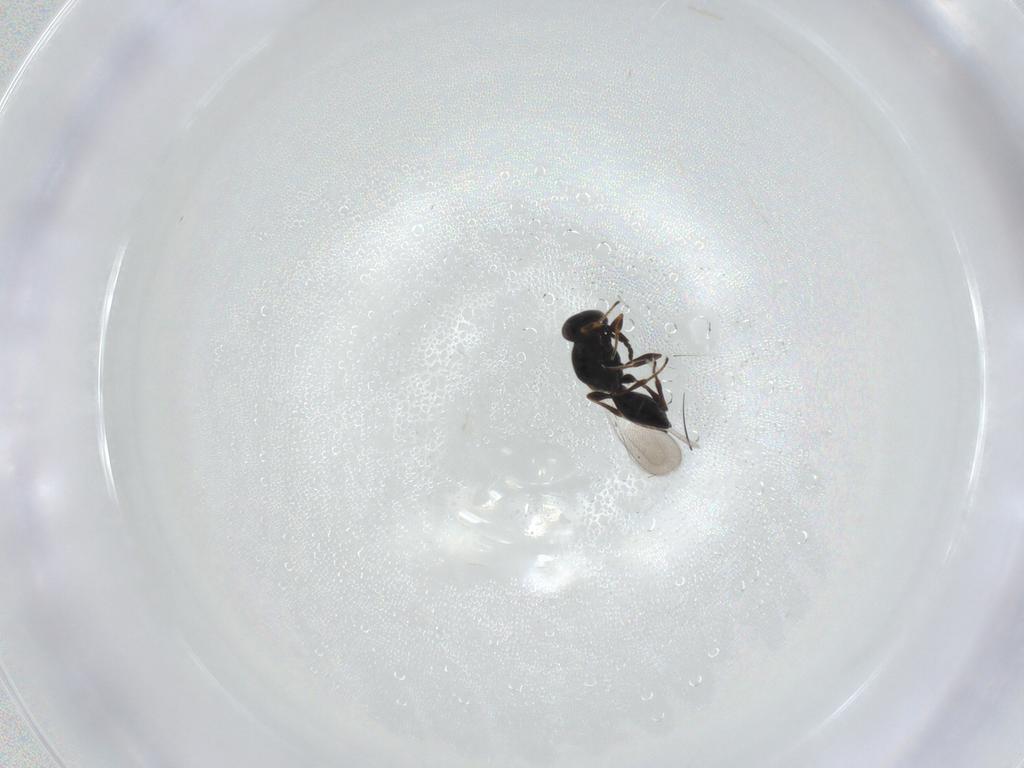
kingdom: Animalia
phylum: Arthropoda
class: Insecta
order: Hymenoptera
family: Platygastridae
